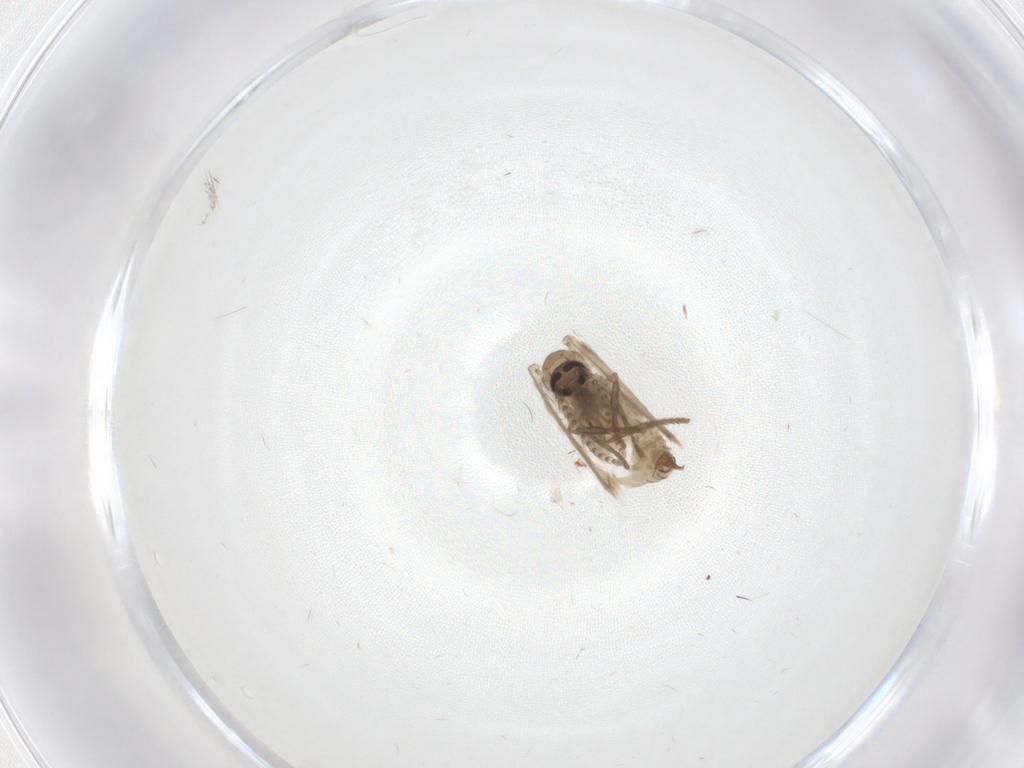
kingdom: Animalia
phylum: Arthropoda
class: Insecta
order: Diptera
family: Psychodidae
